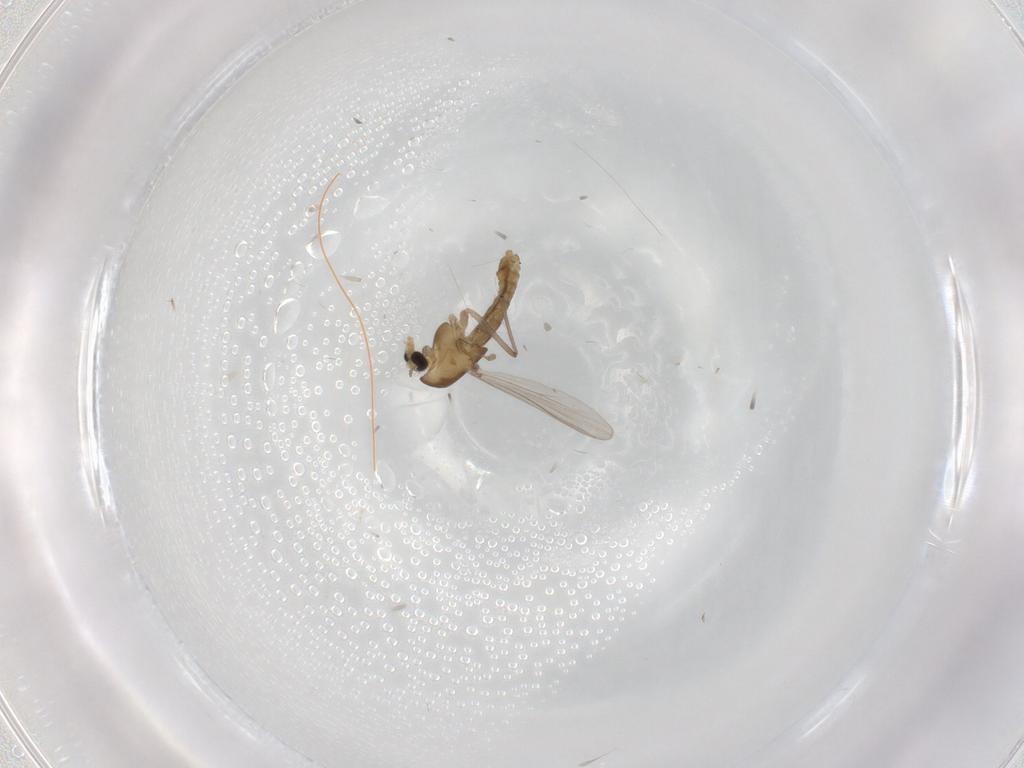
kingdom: Animalia
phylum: Arthropoda
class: Insecta
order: Diptera
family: Chironomidae
